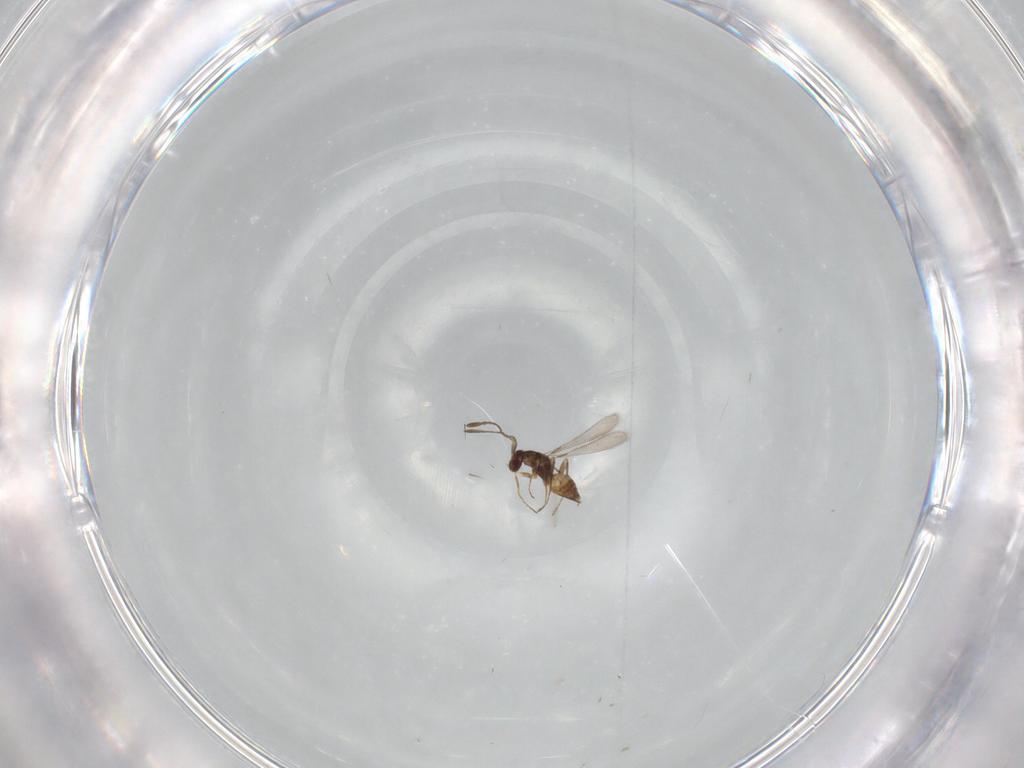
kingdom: Animalia
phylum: Arthropoda
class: Insecta
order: Hymenoptera
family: Mymaridae
